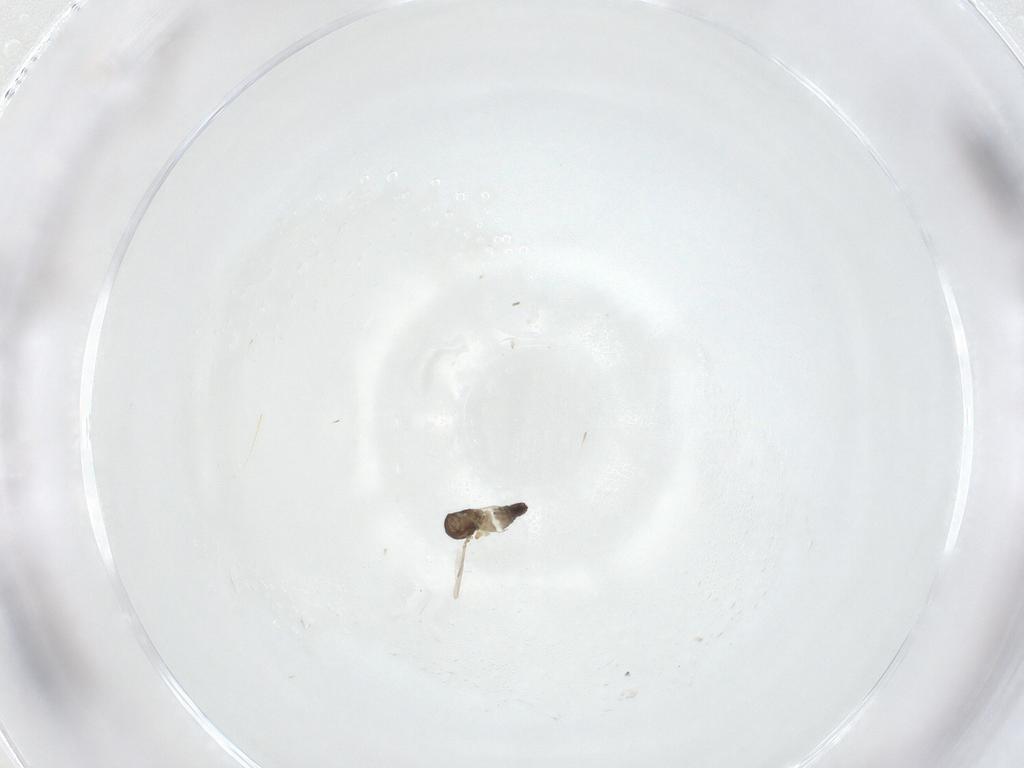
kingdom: Animalia
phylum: Arthropoda
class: Insecta
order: Diptera
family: Ceratopogonidae
